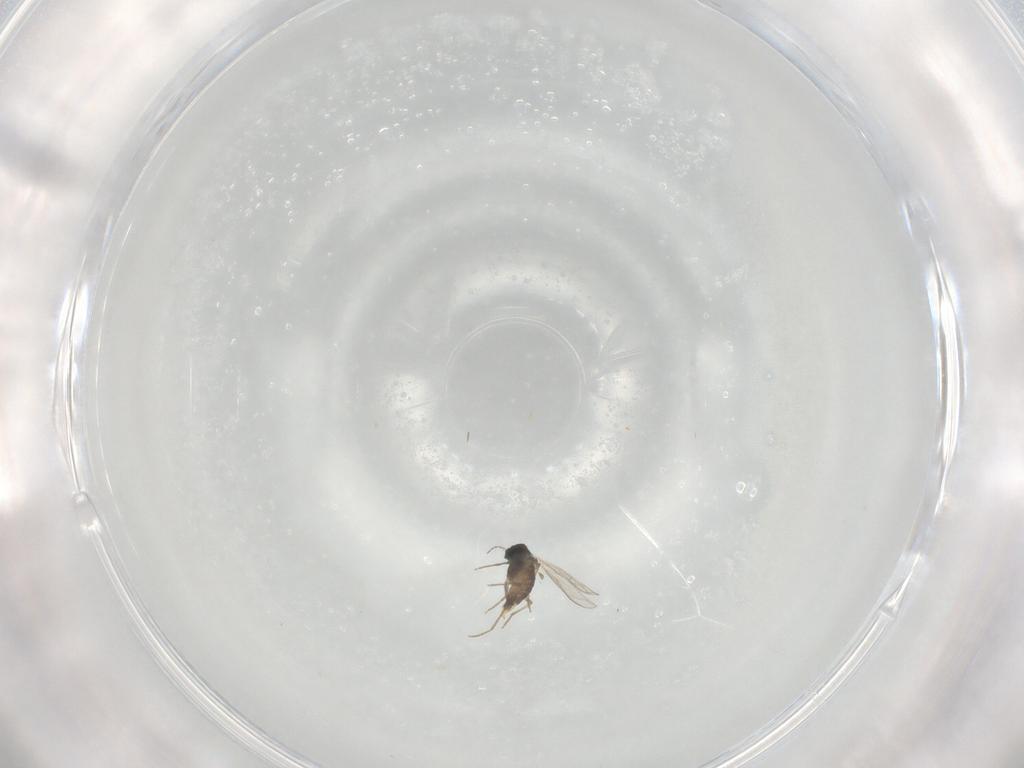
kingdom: Animalia
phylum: Arthropoda
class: Insecta
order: Diptera
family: Chironomidae
